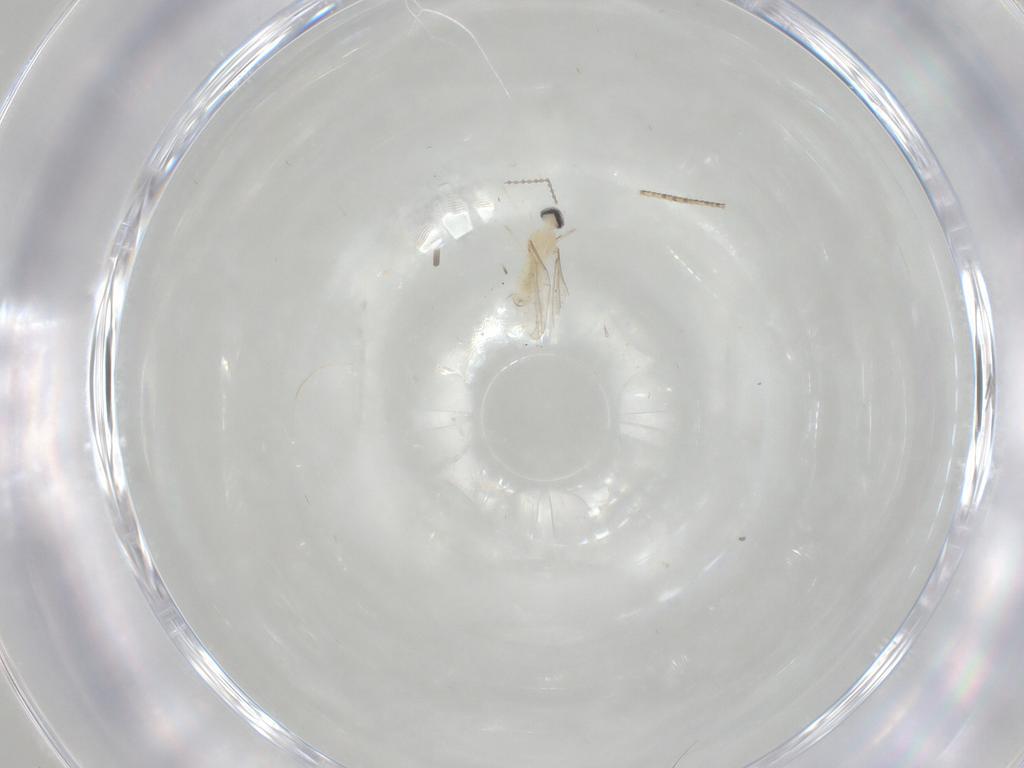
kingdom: Animalia
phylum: Arthropoda
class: Insecta
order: Diptera
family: Cecidomyiidae
